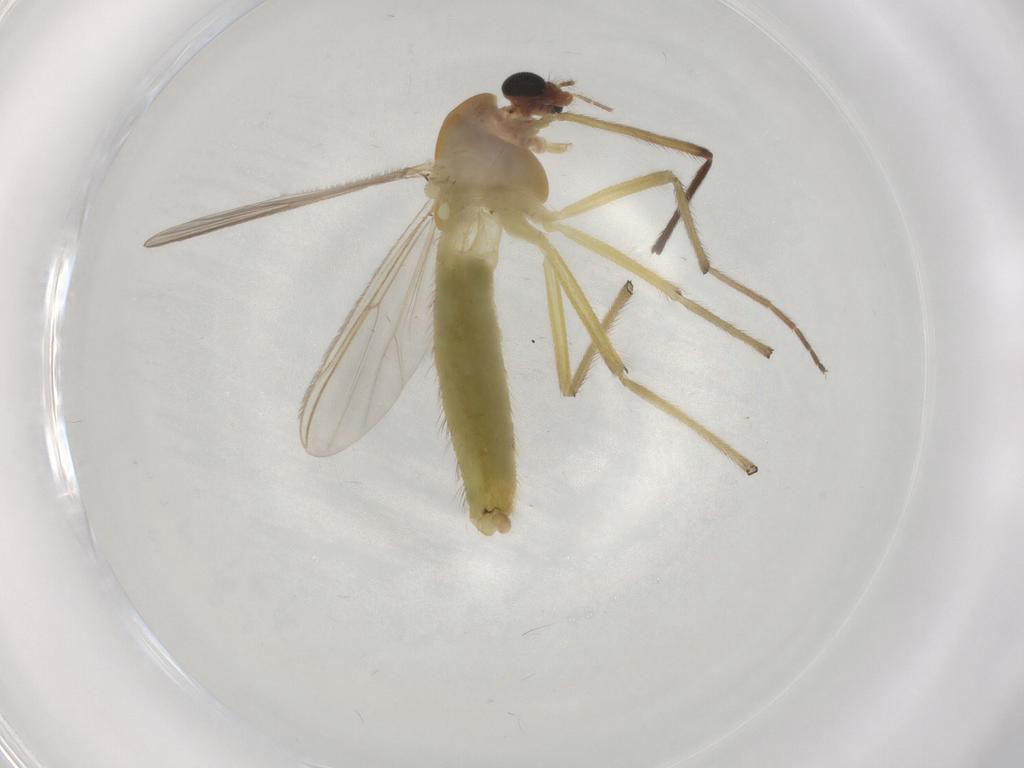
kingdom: Animalia
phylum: Arthropoda
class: Insecta
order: Diptera
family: Chironomidae
